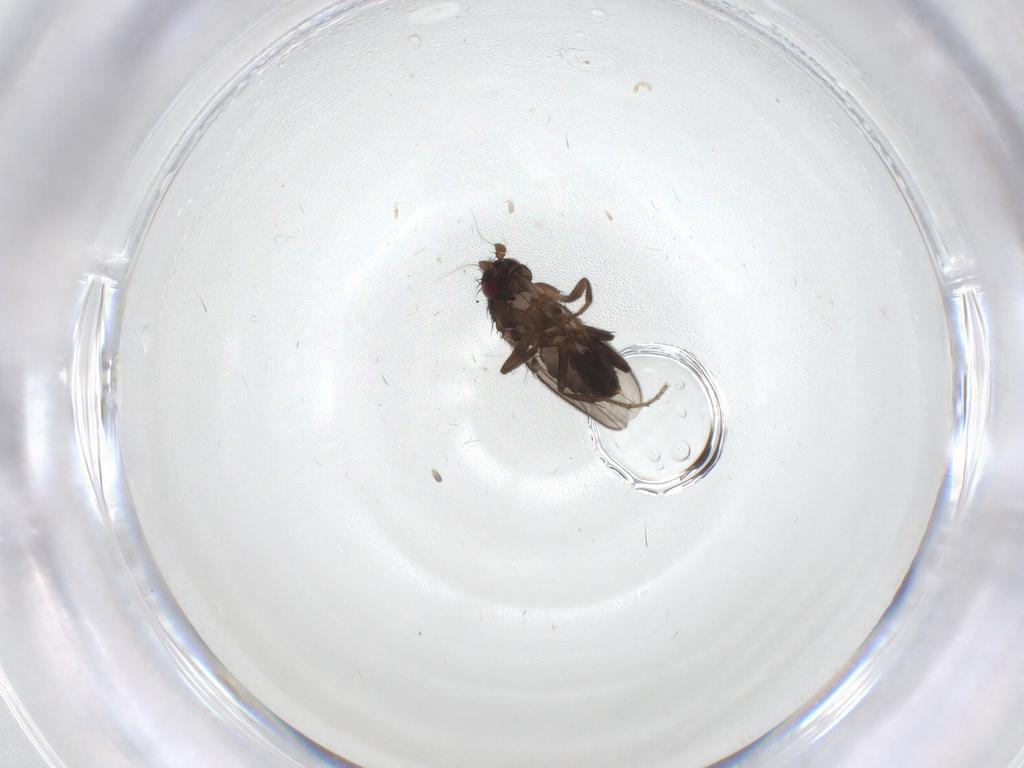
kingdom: Animalia
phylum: Arthropoda
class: Insecta
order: Diptera
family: Sphaeroceridae
